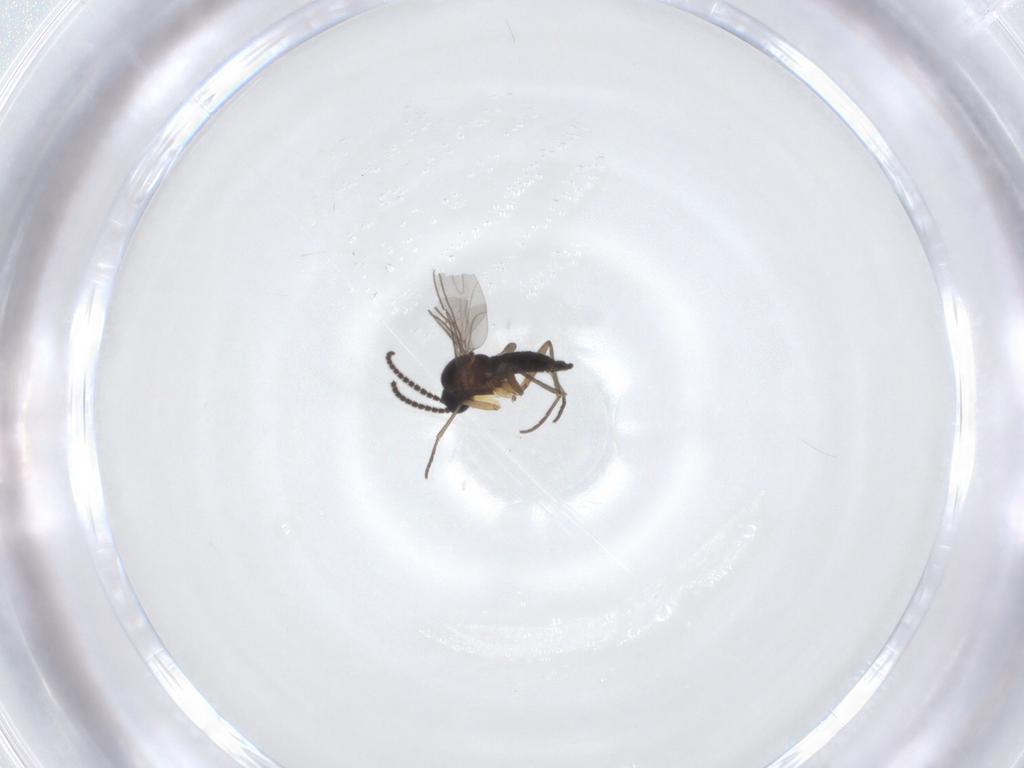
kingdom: Animalia
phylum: Arthropoda
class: Insecta
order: Diptera
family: Sciaridae
